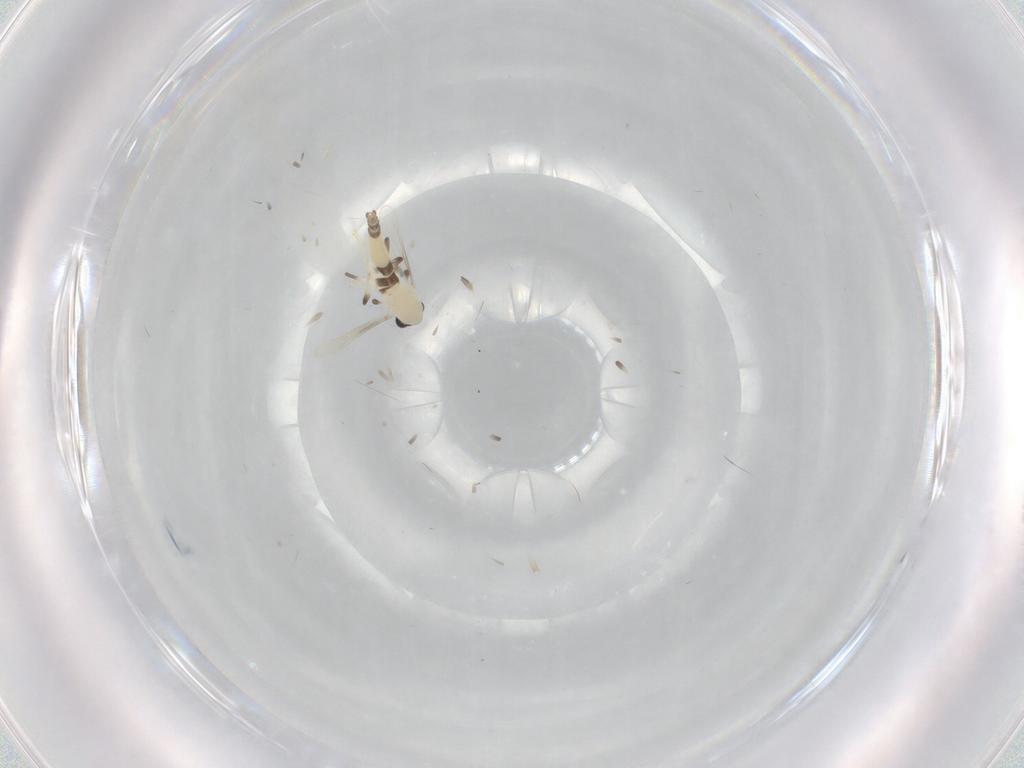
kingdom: Animalia
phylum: Arthropoda
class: Insecta
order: Diptera
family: Chironomidae
